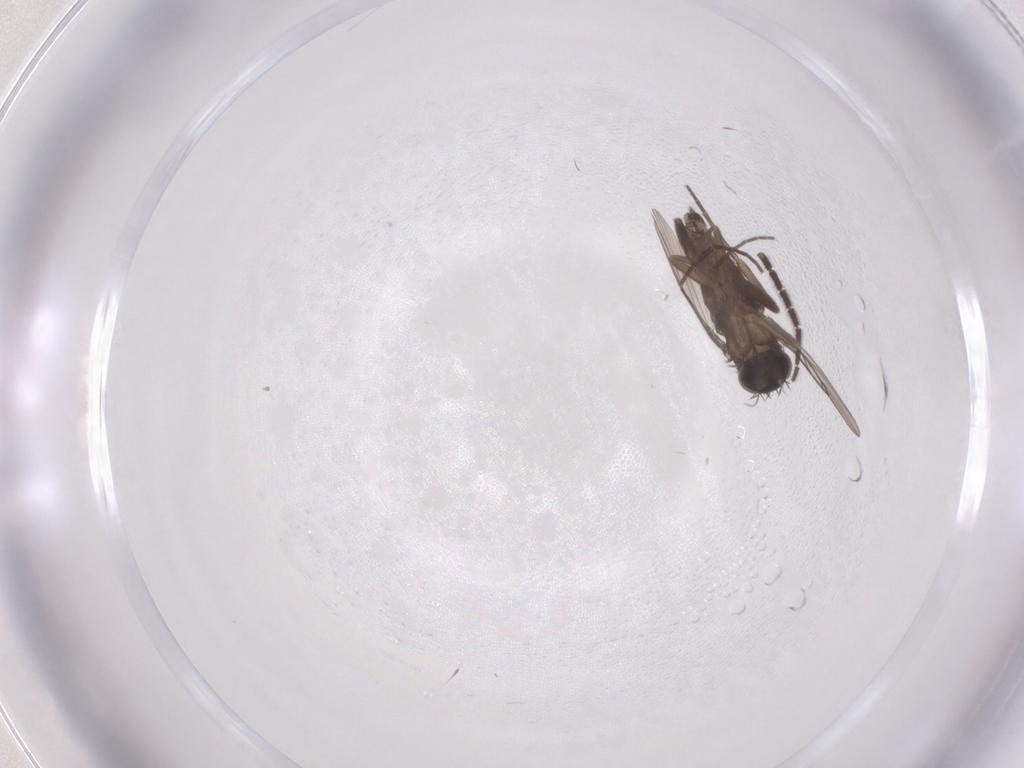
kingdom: Animalia
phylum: Arthropoda
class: Insecta
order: Diptera
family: Phoridae
